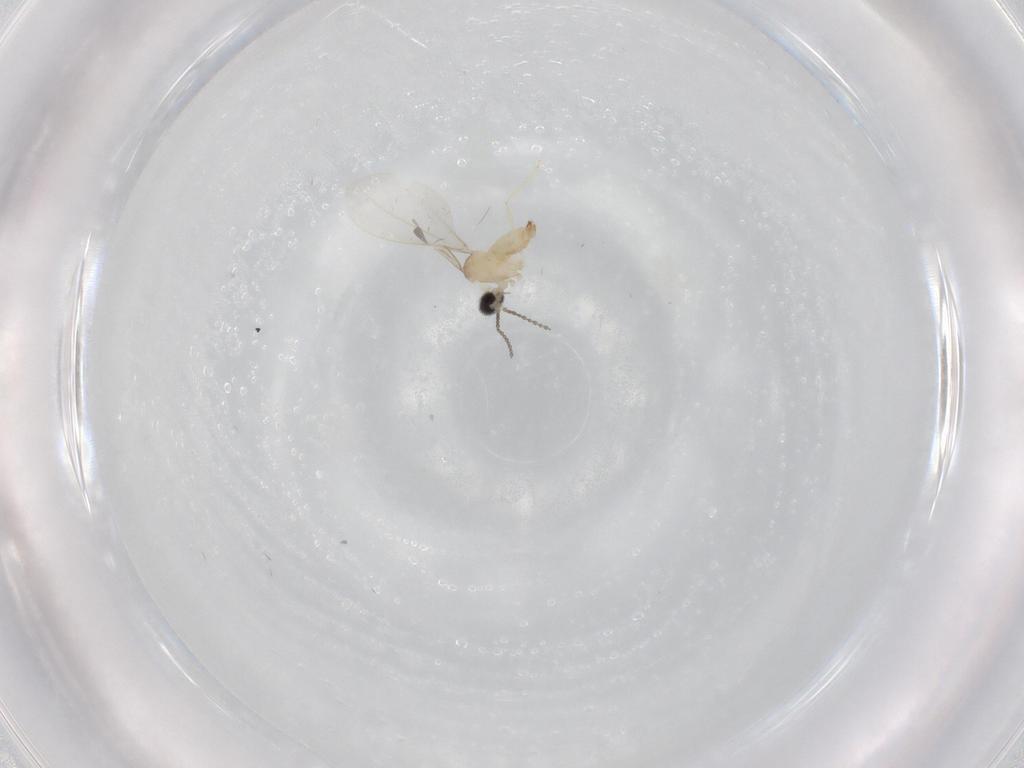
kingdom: Animalia
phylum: Arthropoda
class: Insecta
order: Diptera
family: Cecidomyiidae
